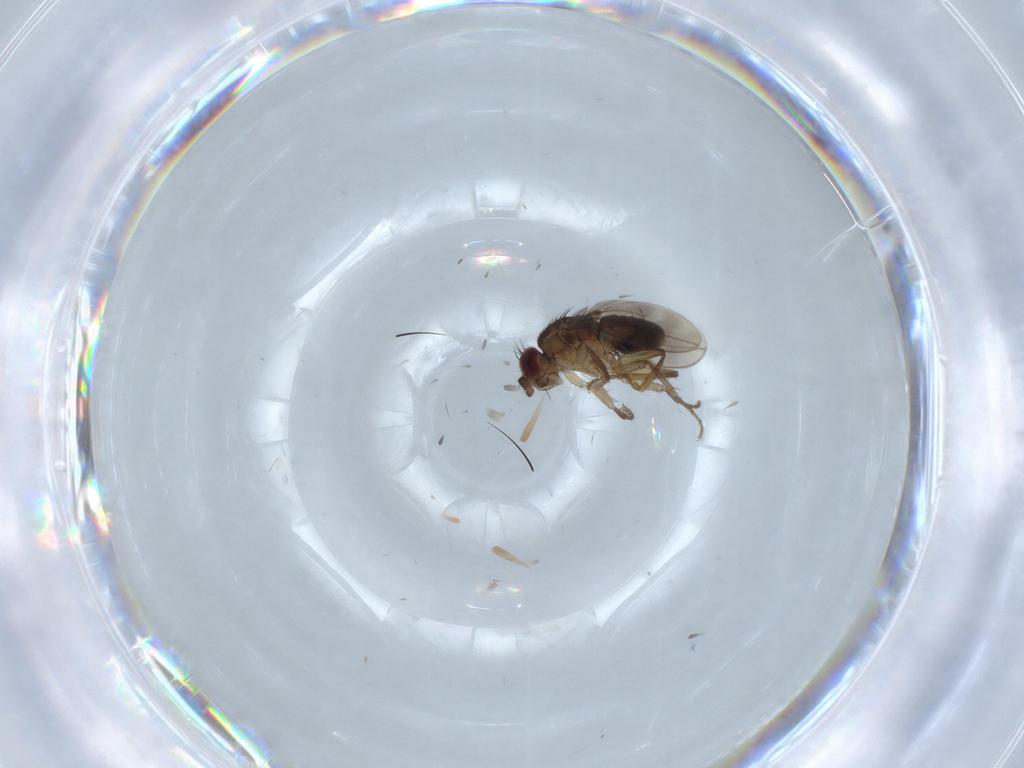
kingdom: Animalia
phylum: Arthropoda
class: Insecta
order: Diptera
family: Sphaeroceridae
